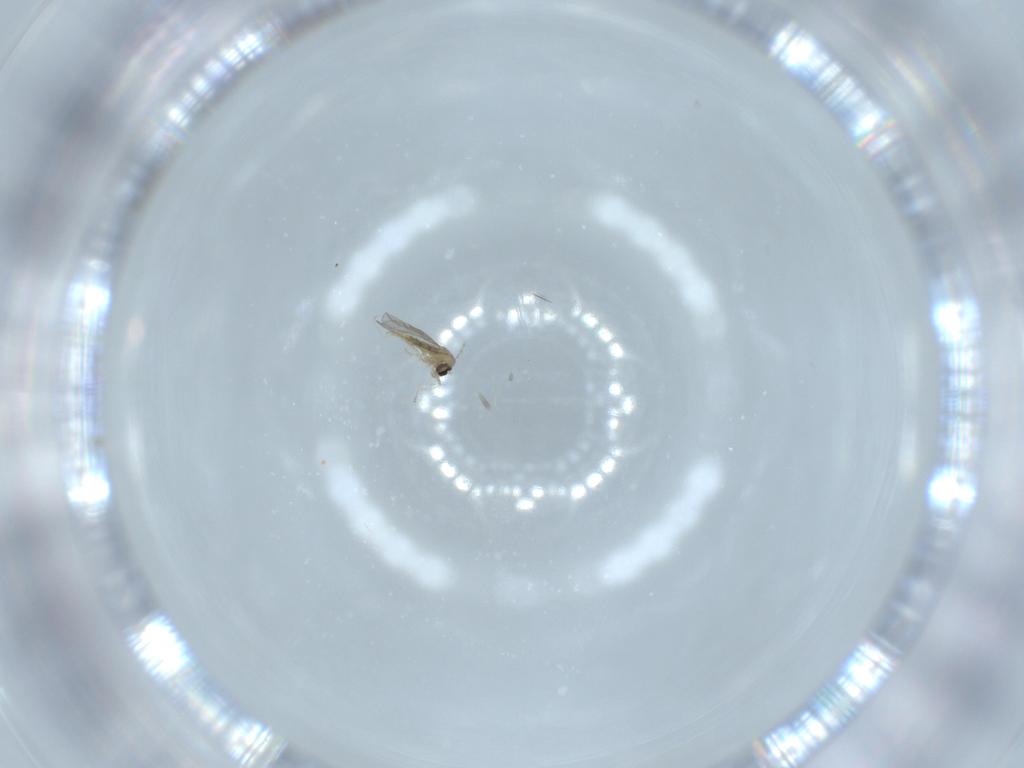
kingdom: Animalia
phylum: Arthropoda
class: Insecta
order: Diptera
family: Cecidomyiidae
